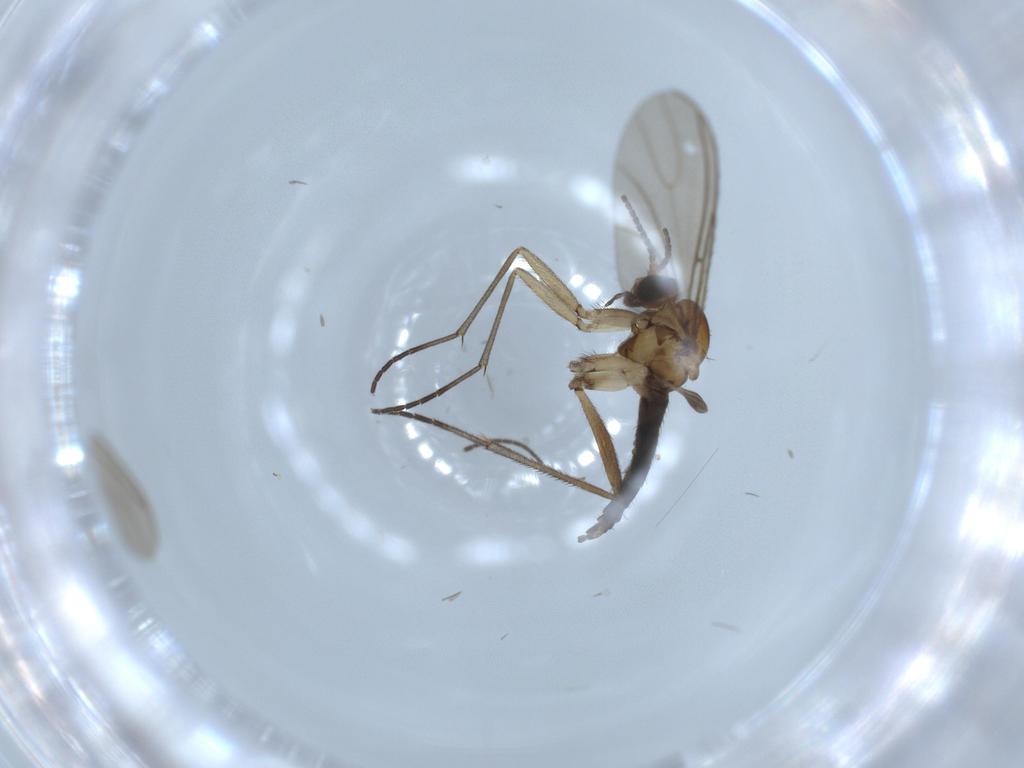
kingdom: Animalia
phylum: Arthropoda
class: Insecta
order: Diptera
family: Sciaridae
